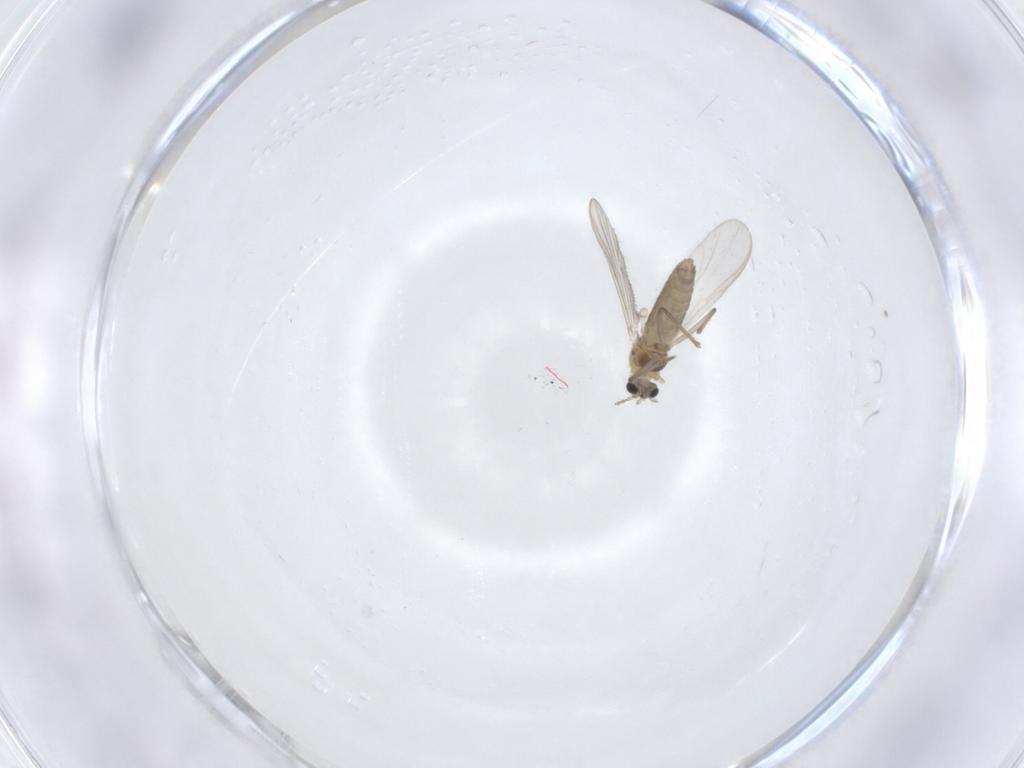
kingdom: Animalia
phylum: Arthropoda
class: Insecta
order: Diptera
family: Chironomidae
